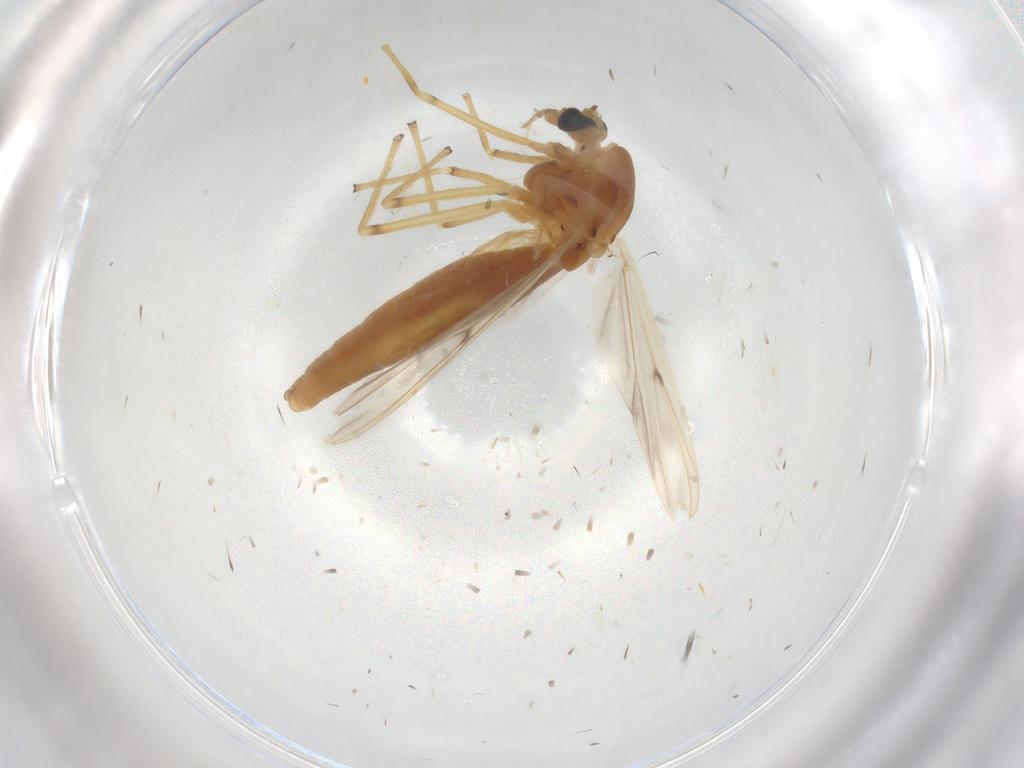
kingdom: Animalia
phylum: Arthropoda
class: Insecta
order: Diptera
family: Chironomidae
